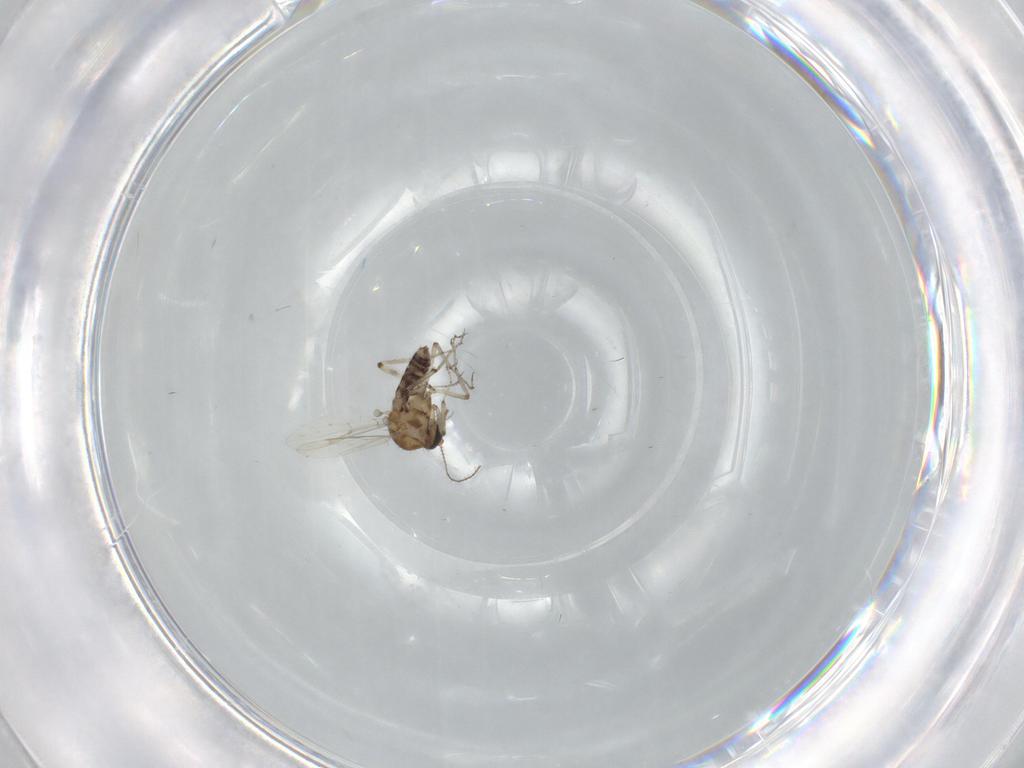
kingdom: Animalia
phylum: Arthropoda
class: Insecta
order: Diptera
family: Ceratopogonidae
